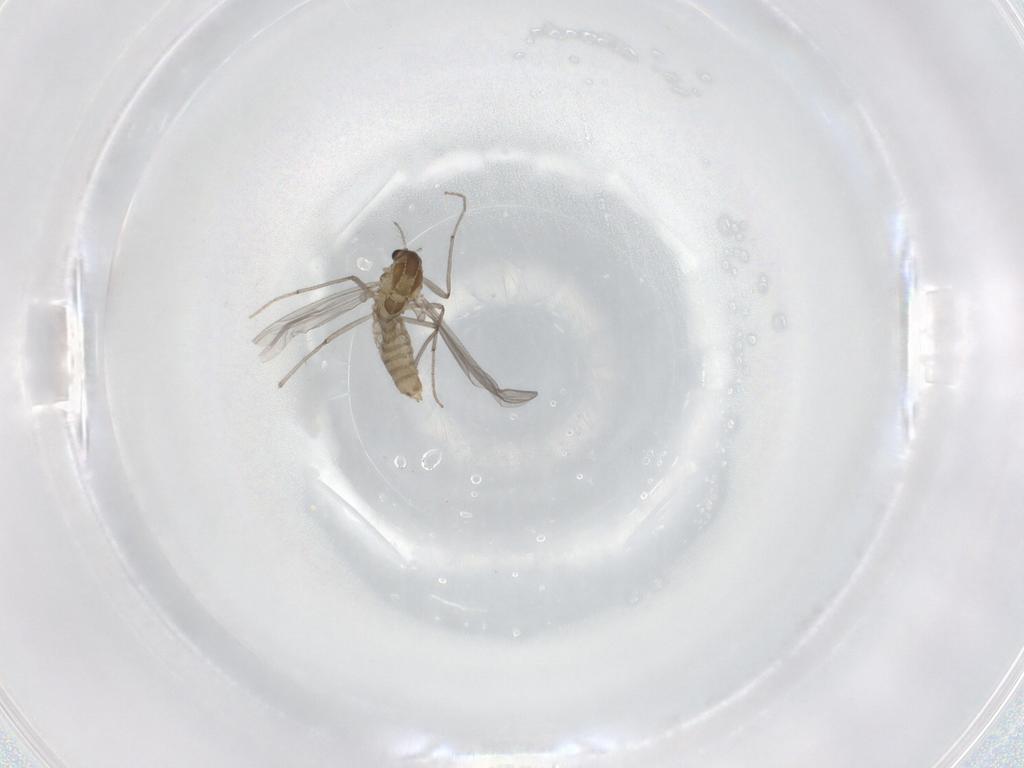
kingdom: Animalia
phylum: Arthropoda
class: Insecta
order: Diptera
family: Chironomidae
